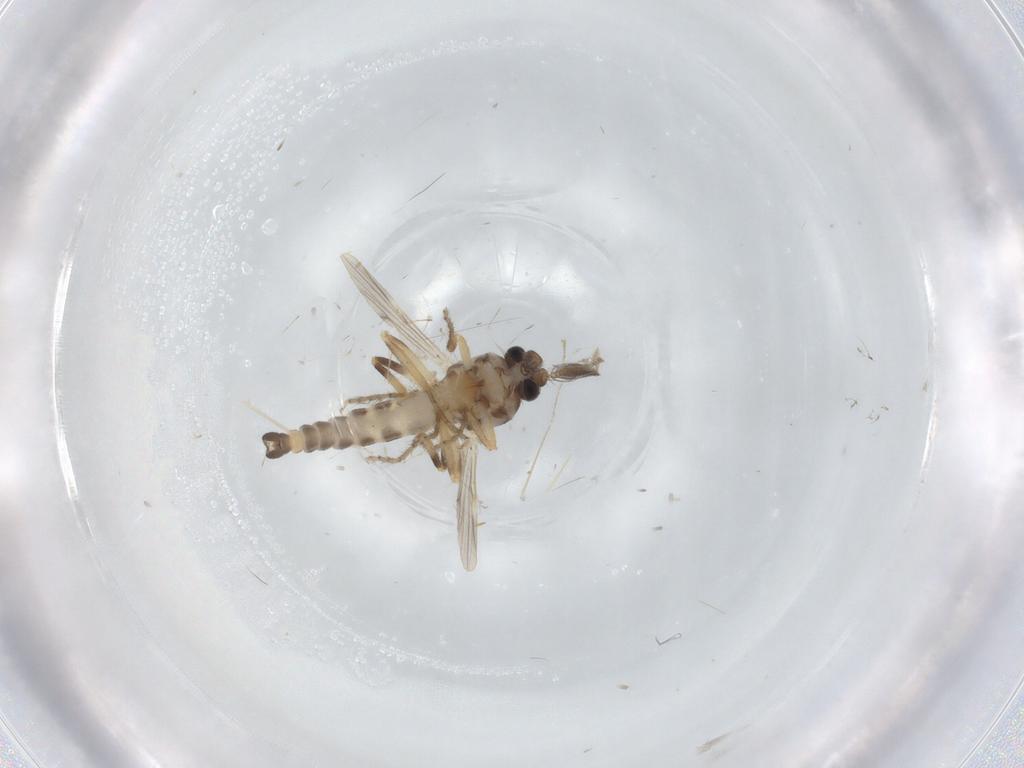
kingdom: Animalia
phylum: Arthropoda
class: Insecta
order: Diptera
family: Ceratopogonidae
